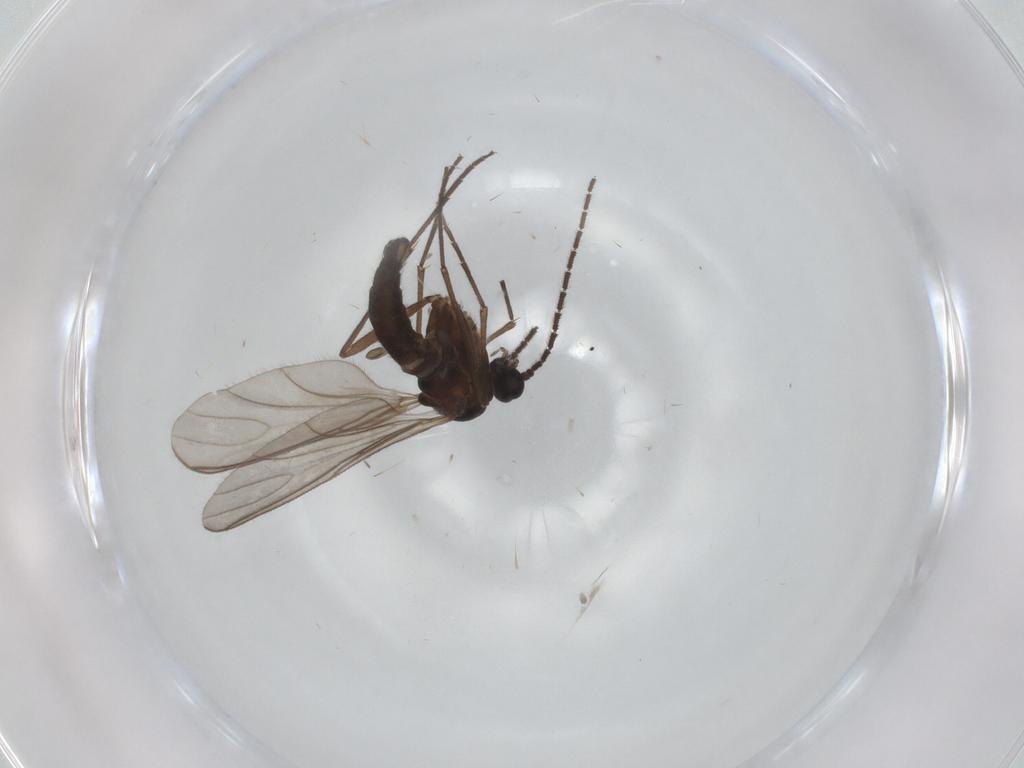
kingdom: Animalia
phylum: Arthropoda
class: Insecta
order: Diptera
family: Sciaridae
